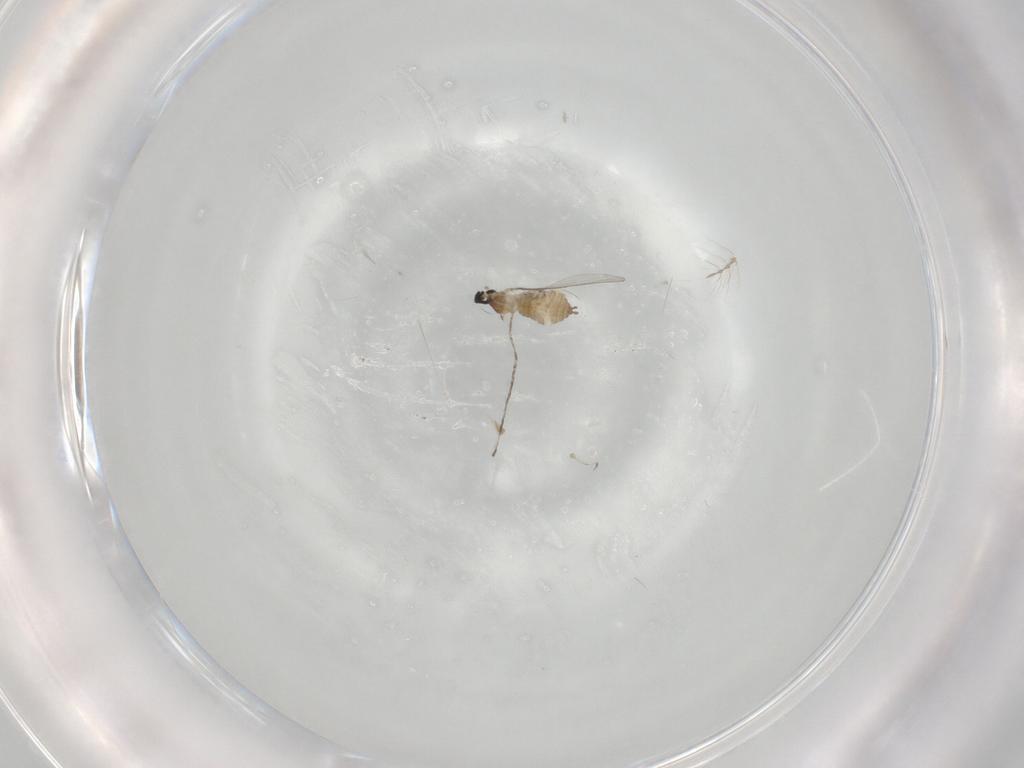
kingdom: Animalia
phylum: Arthropoda
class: Insecta
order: Diptera
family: Cecidomyiidae
